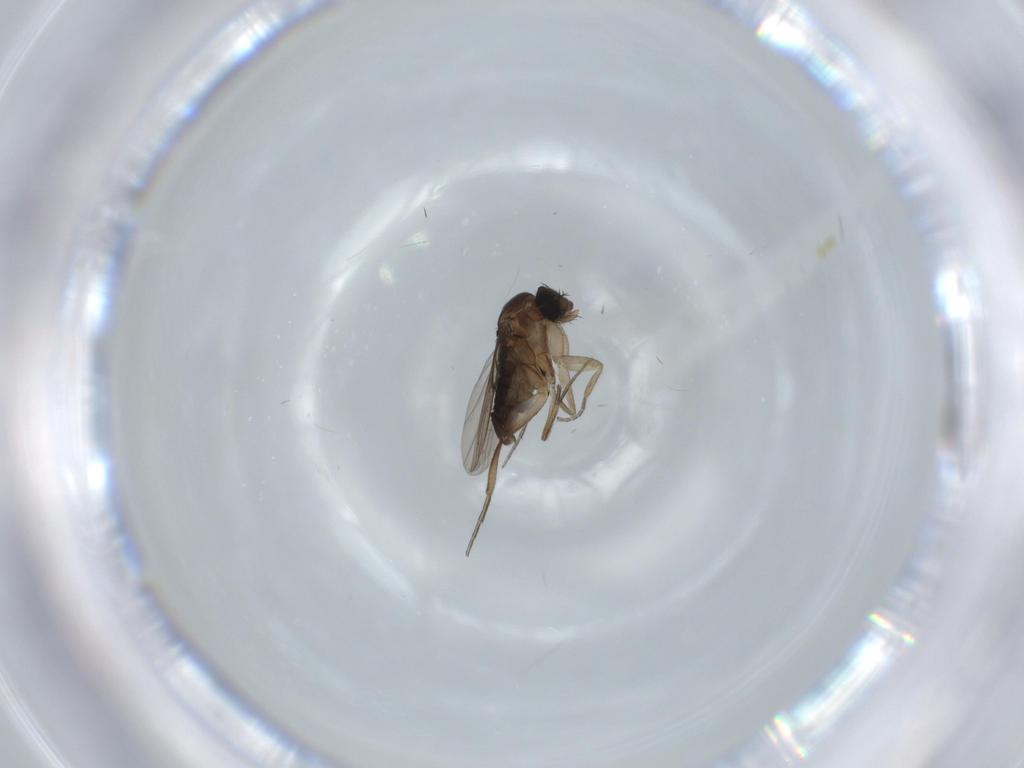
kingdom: Animalia
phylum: Arthropoda
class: Insecta
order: Diptera
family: Phoridae
